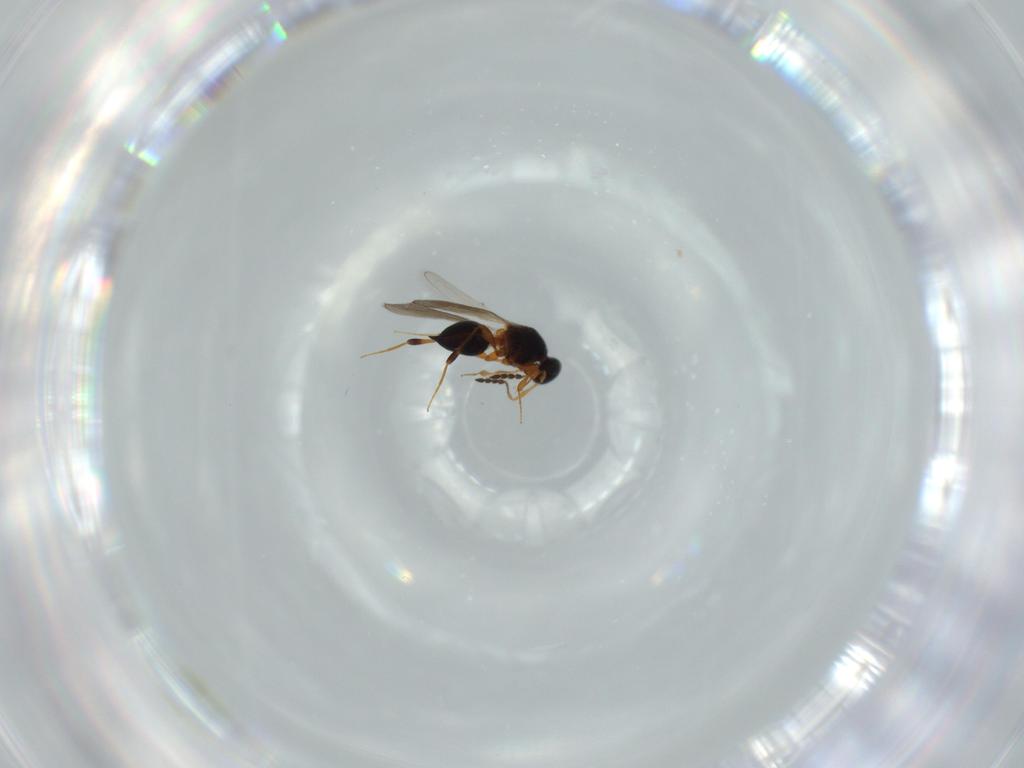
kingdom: Animalia
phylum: Arthropoda
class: Insecta
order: Hymenoptera
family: Platygastridae
